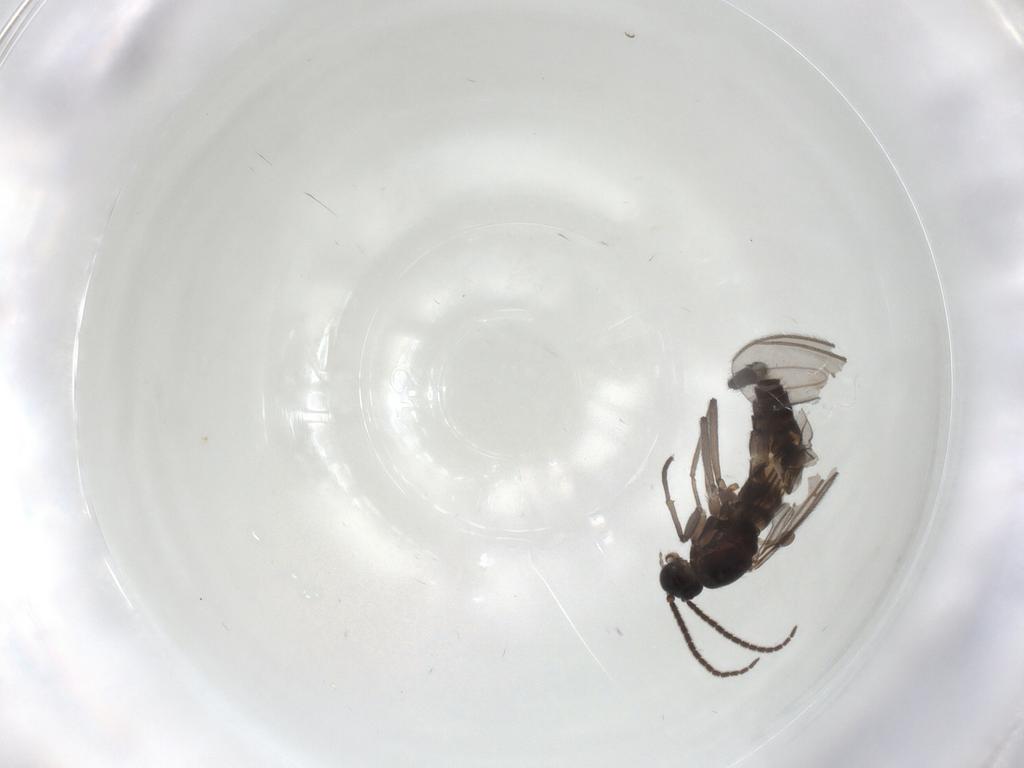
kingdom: Animalia
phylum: Arthropoda
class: Insecta
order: Diptera
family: Sciaridae
